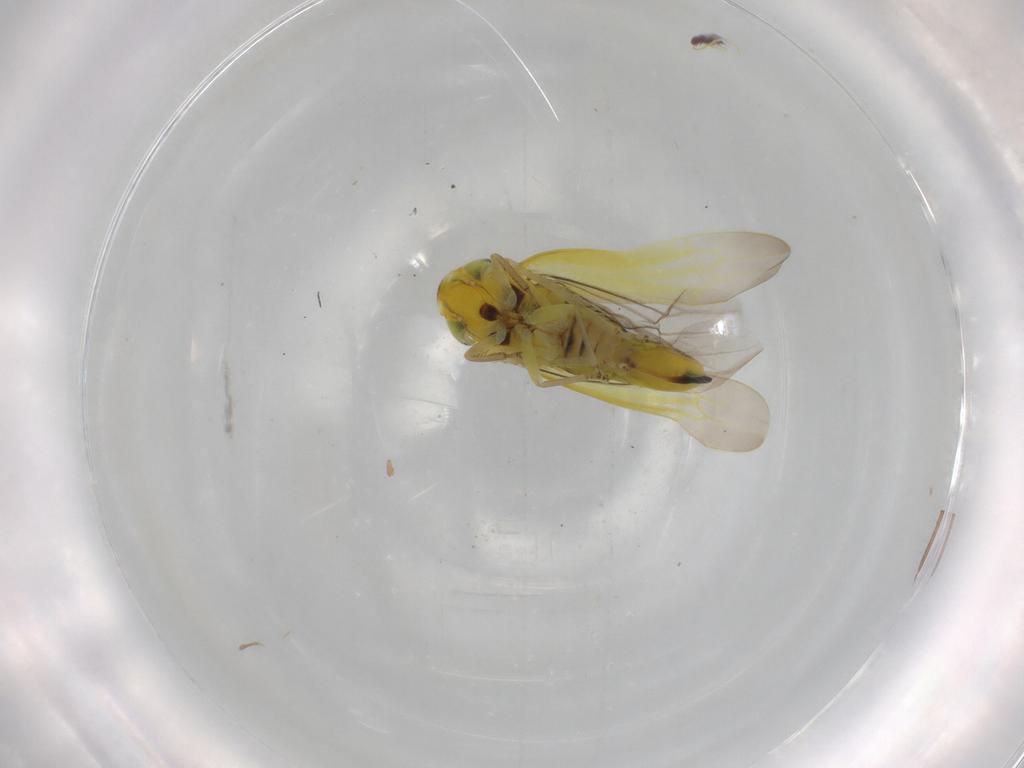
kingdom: Animalia
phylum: Arthropoda
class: Insecta
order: Hemiptera
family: Cicadellidae
